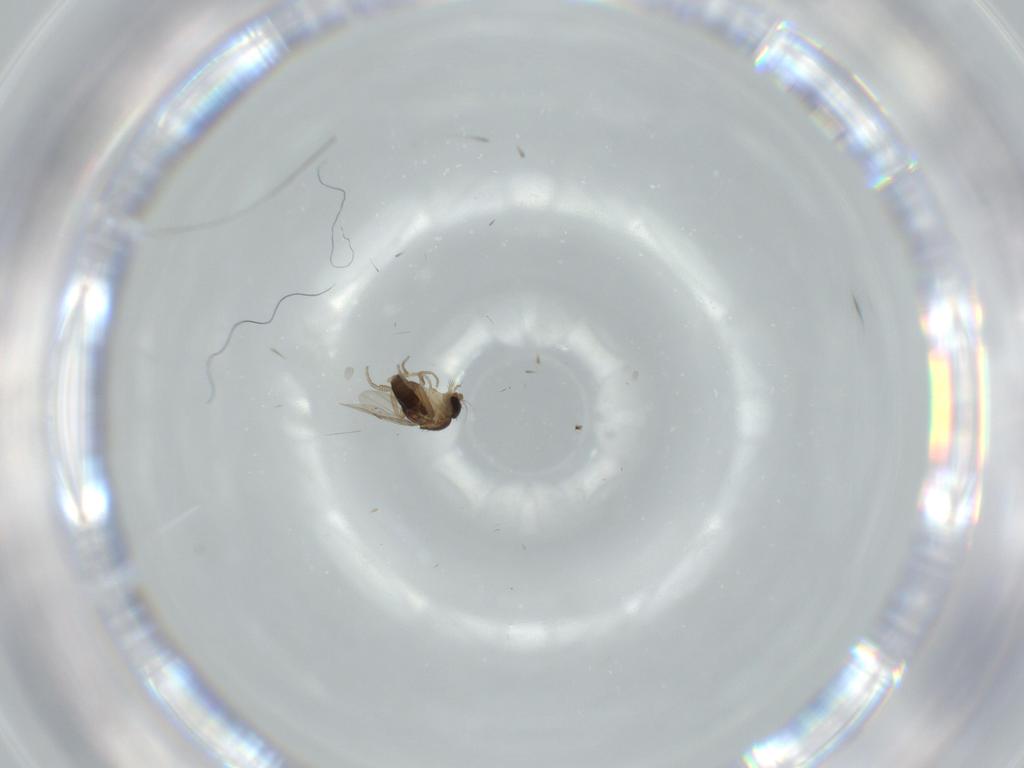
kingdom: Animalia
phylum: Arthropoda
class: Insecta
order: Diptera
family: Phoridae
